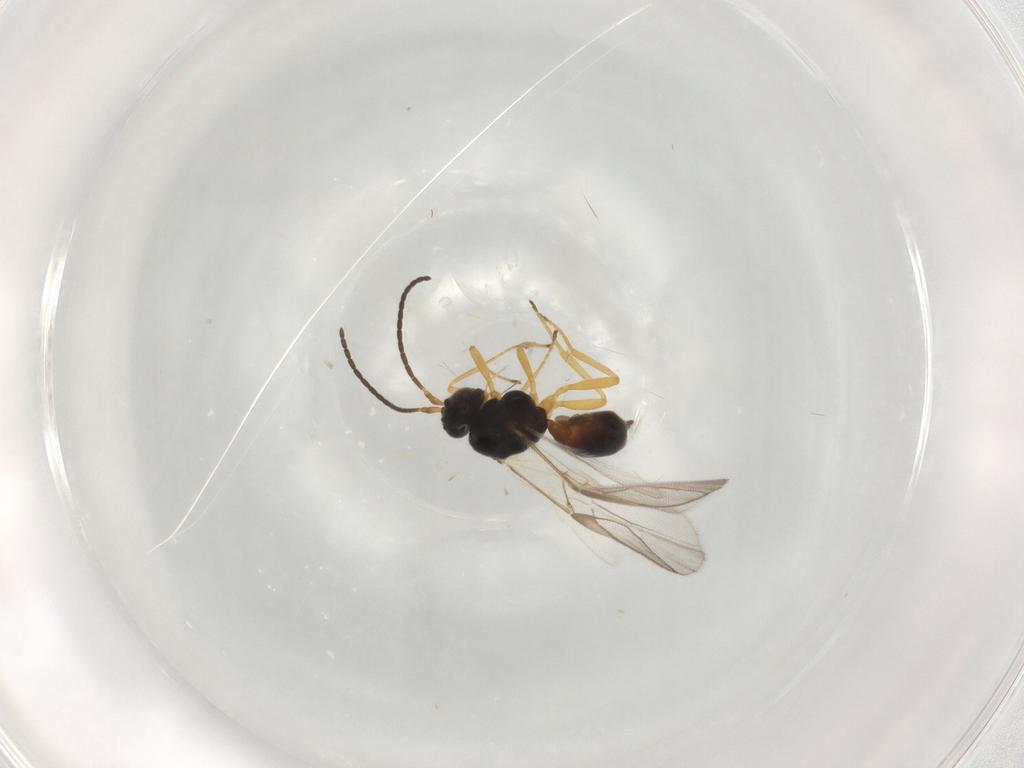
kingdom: Animalia
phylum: Arthropoda
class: Insecta
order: Hymenoptera
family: Braconidae
